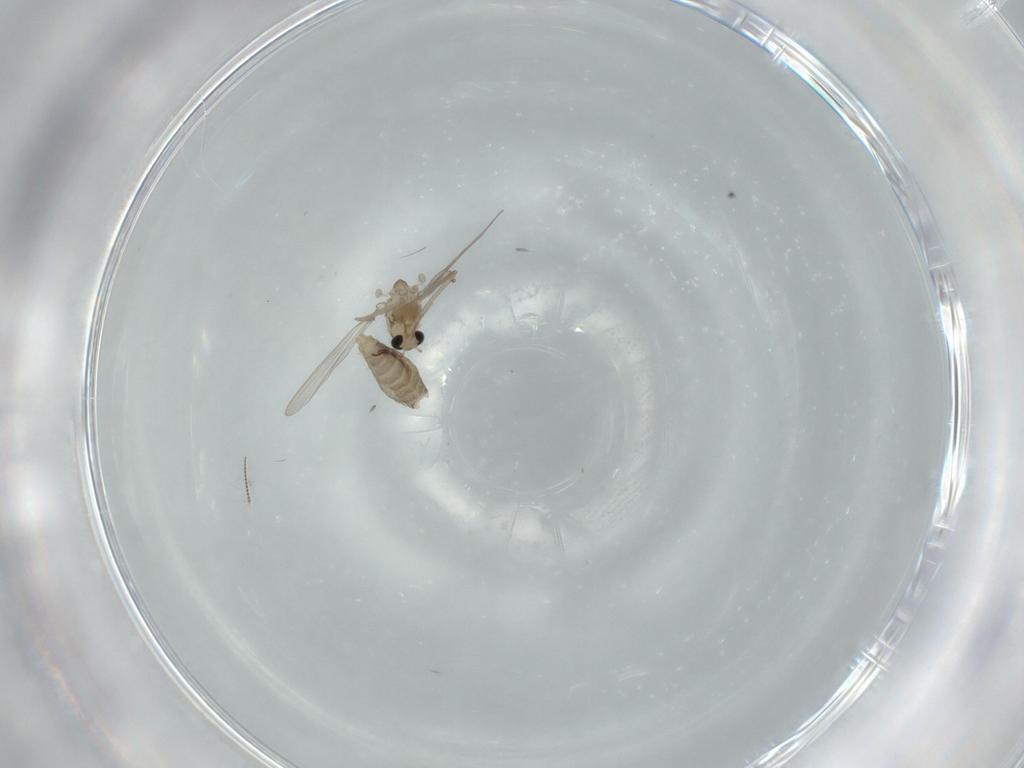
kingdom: Animalia
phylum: Arthropoda
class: Insecta
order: Diptera
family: Chironomidae
